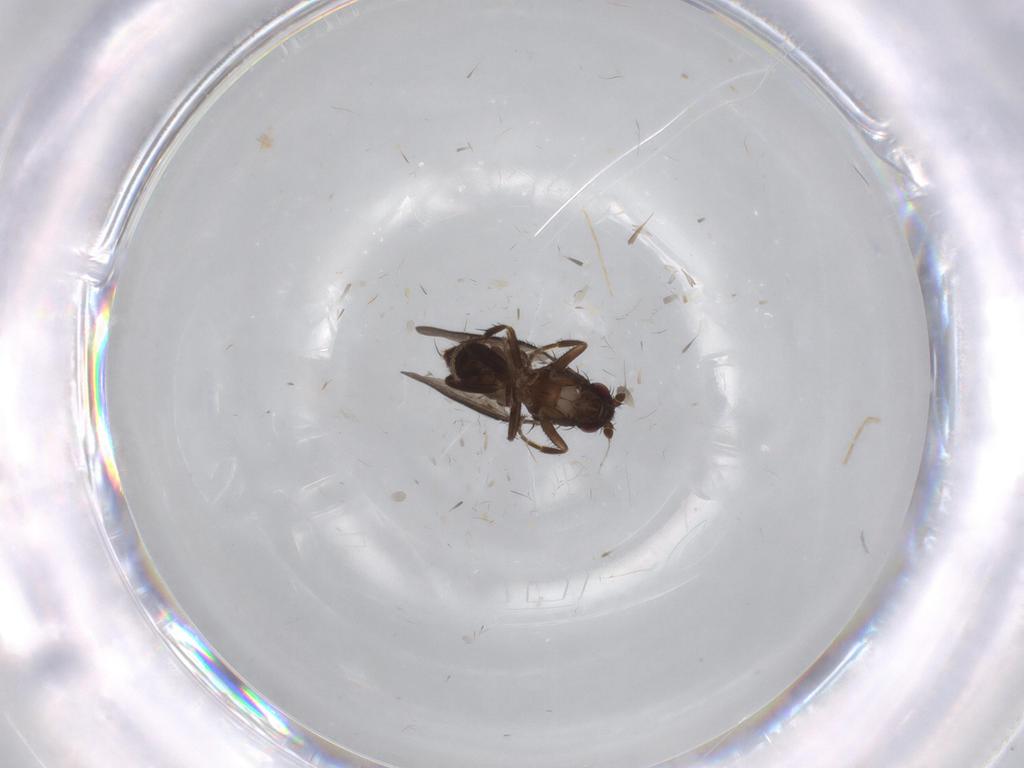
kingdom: Animalia
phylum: Arthropoda
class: Insecta
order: Diptera
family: Sphaeroceridae
